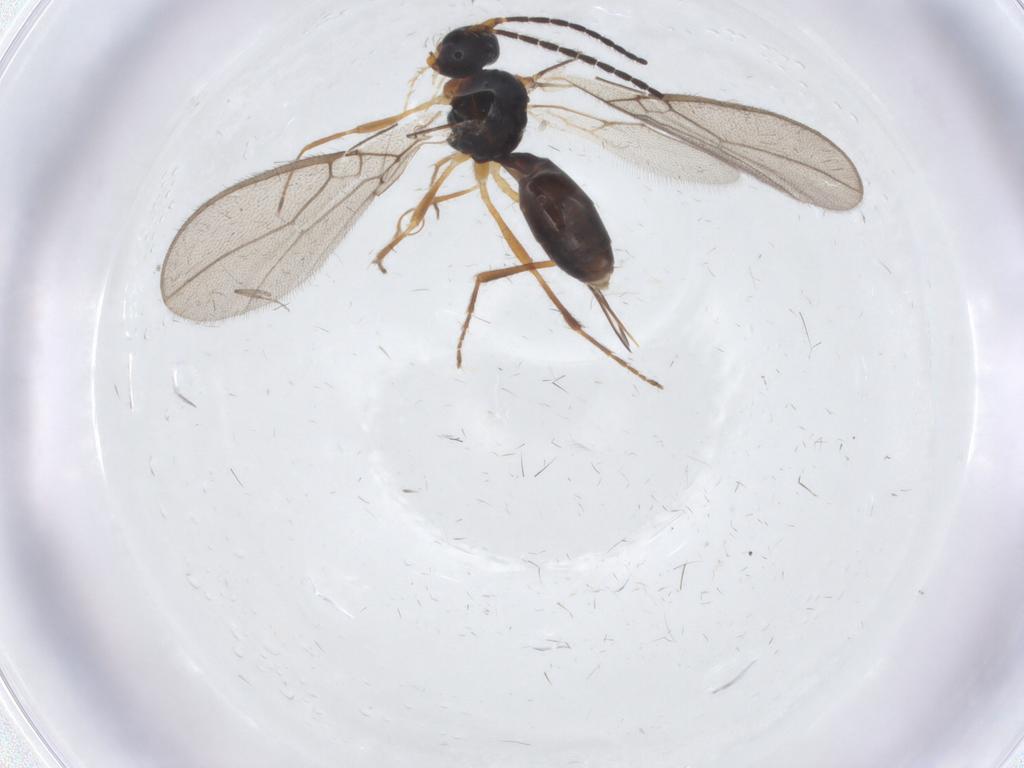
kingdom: Animalia
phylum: Arthropoda
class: Insecta
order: Hymenoptera
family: Braconidae
